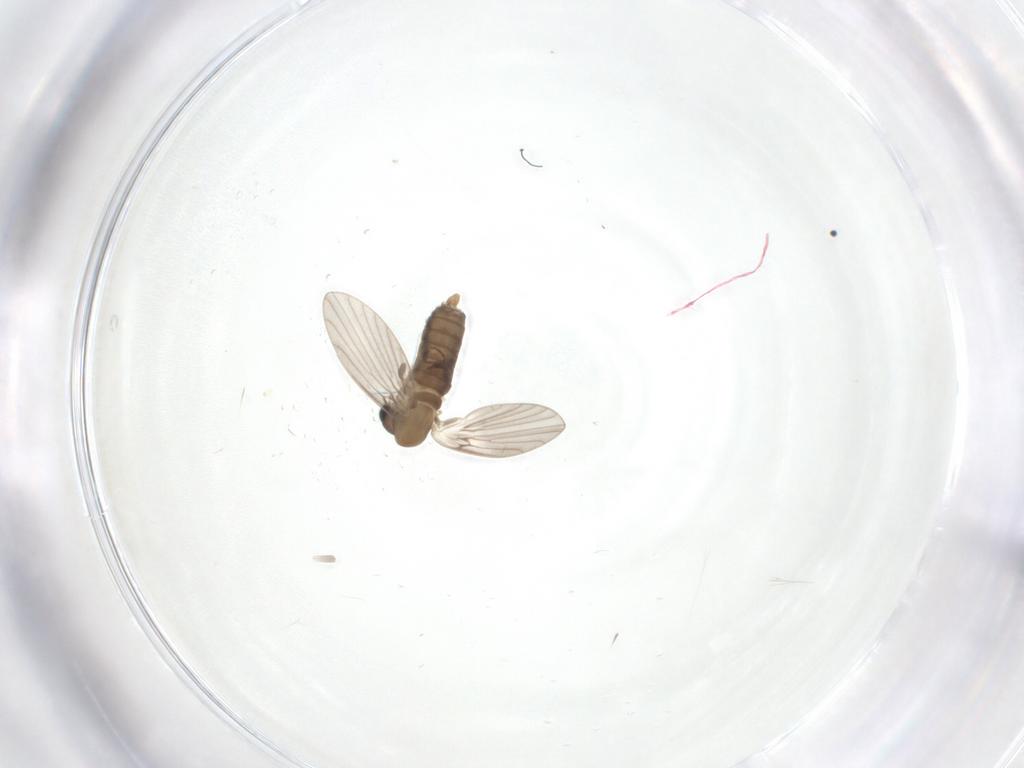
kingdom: Animalia
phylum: Arthropoda
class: Insecta
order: Diptera
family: Psychodidae
